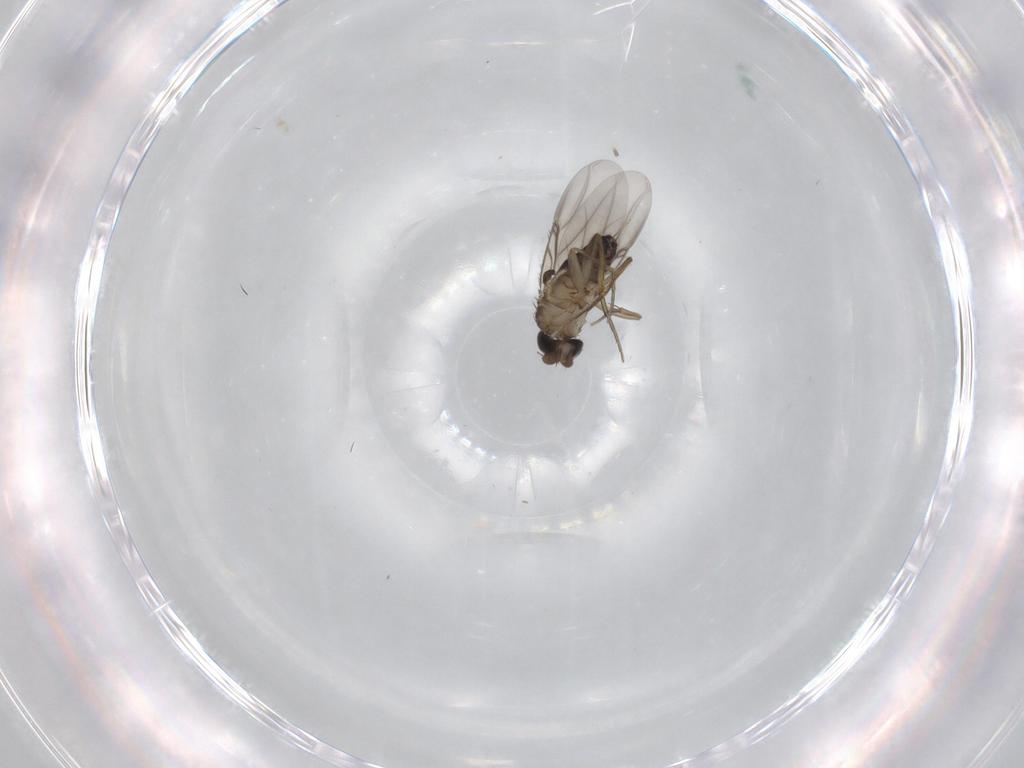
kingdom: Animalia
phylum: Arthropoda
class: Insecta
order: Diptera
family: Phoridae
